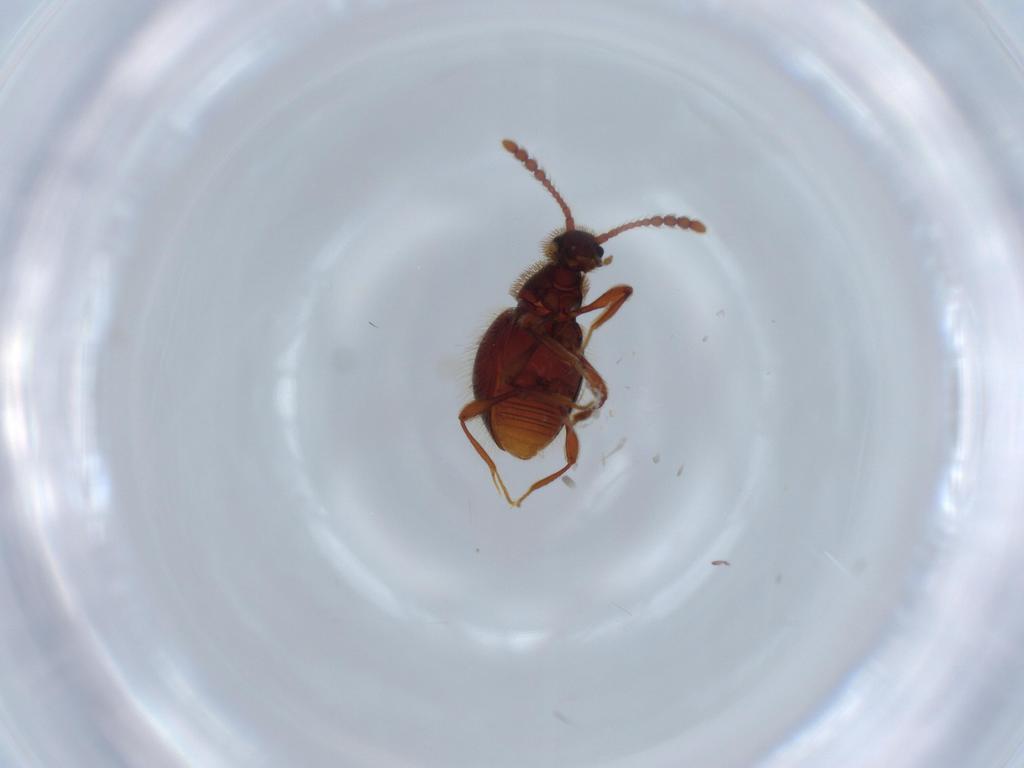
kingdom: Animalia
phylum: Arthropoda
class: Insecta
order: Coleoptera
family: Staphylinidae
